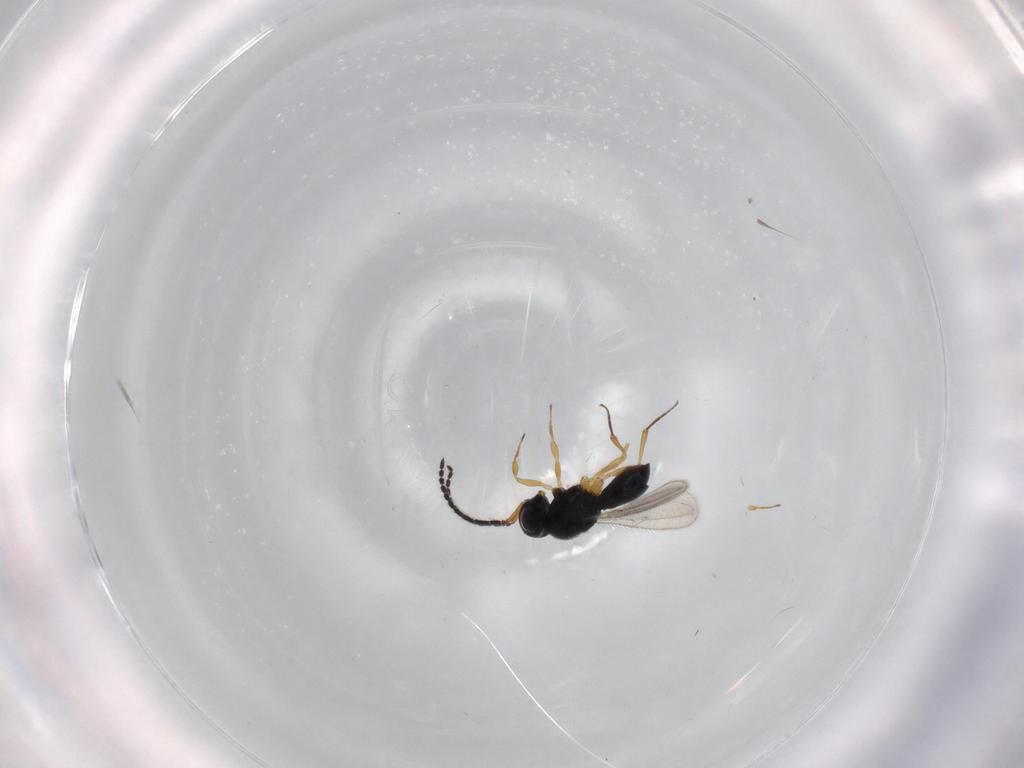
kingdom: Animalia
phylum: Arthropoda
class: Insecta
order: Hymenoptera
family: Scelionidae
